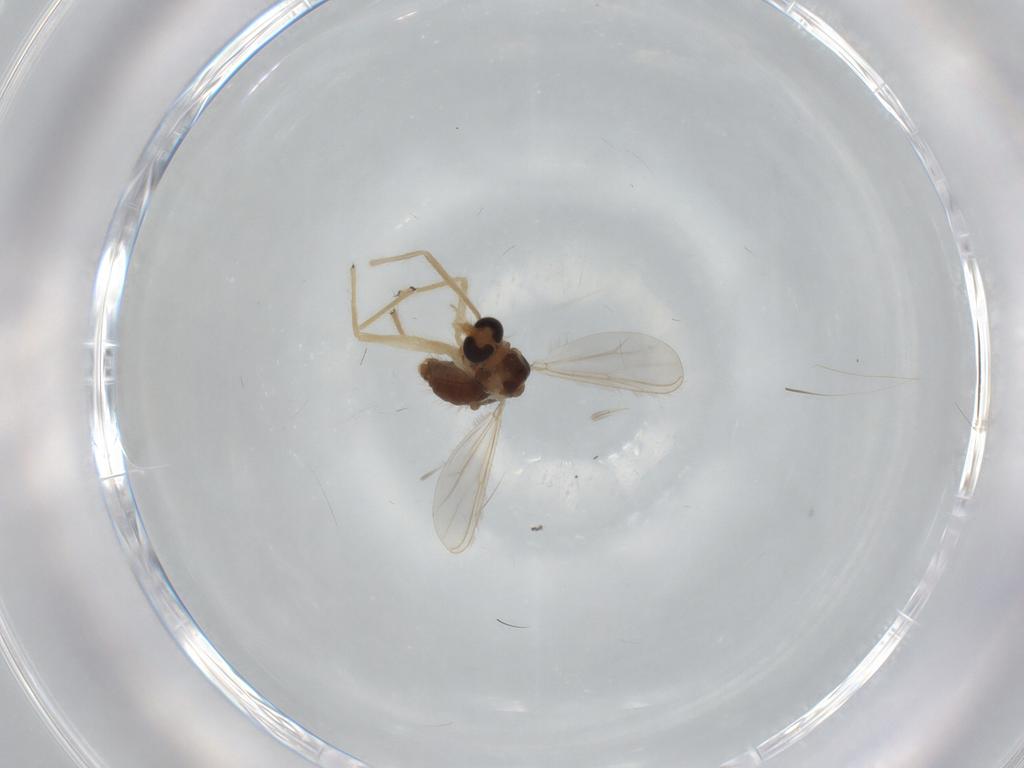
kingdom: Animalia
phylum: Arthropoda
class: Insecta
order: Diptera
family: Chironomidae
